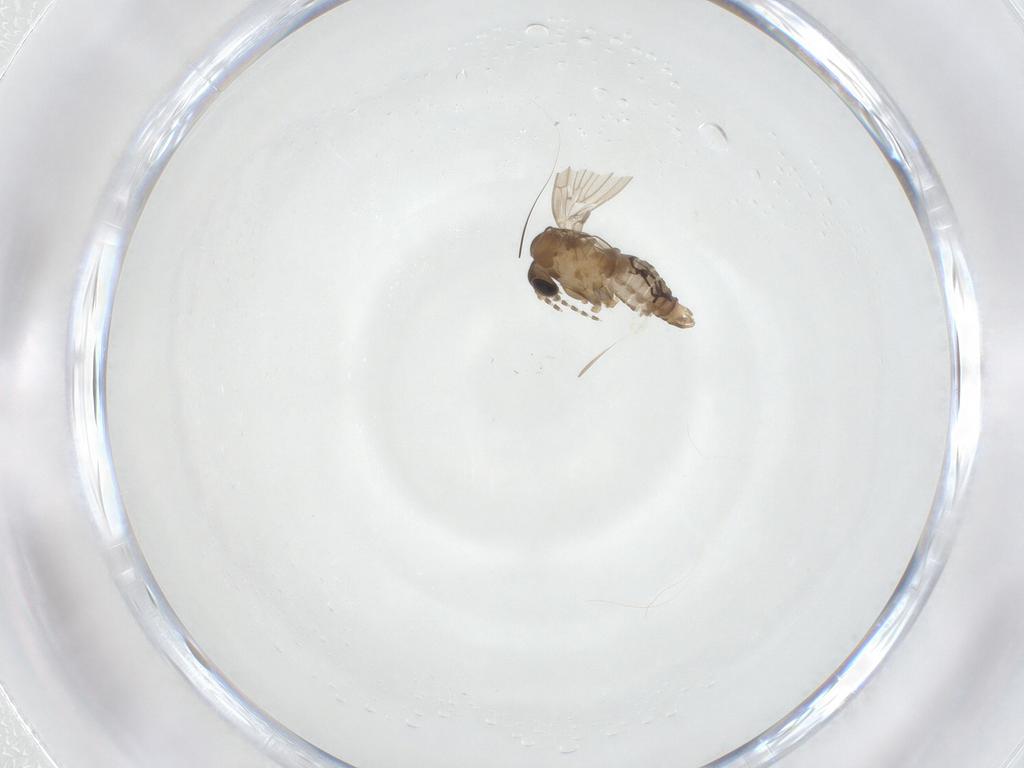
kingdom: Animalia
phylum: Arthropoda
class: Insecta
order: Diptera
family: Psychodidae
